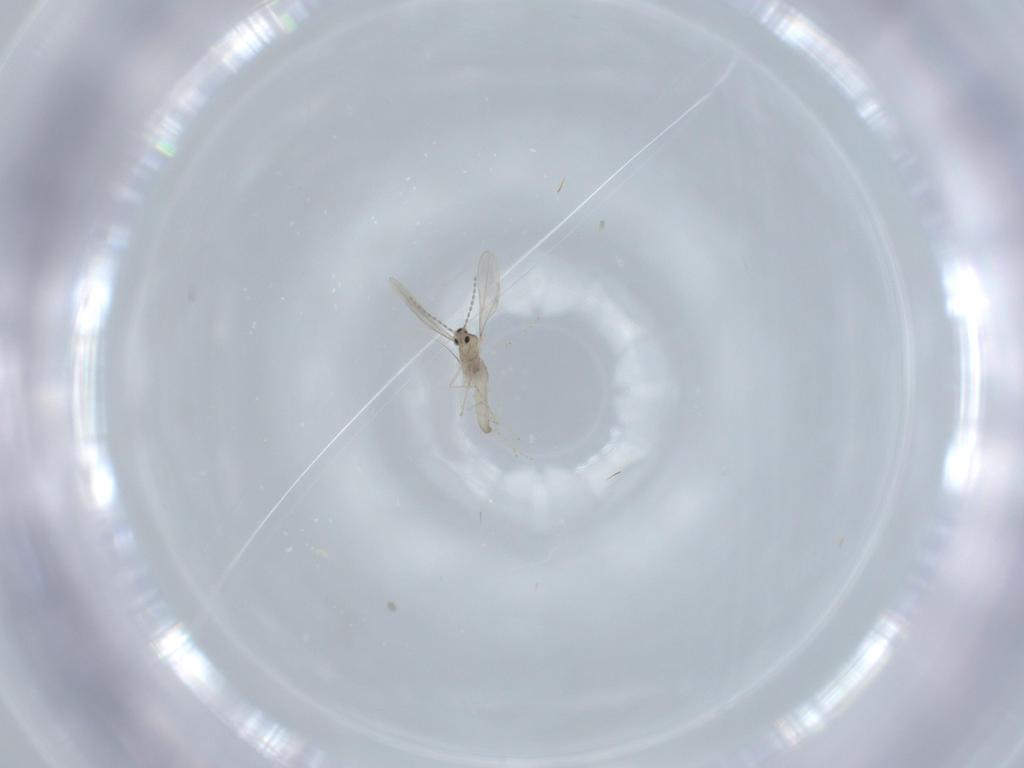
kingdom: Animalia
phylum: Arthropoda
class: Insecta
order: Diptera
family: Cecidomyiidae
